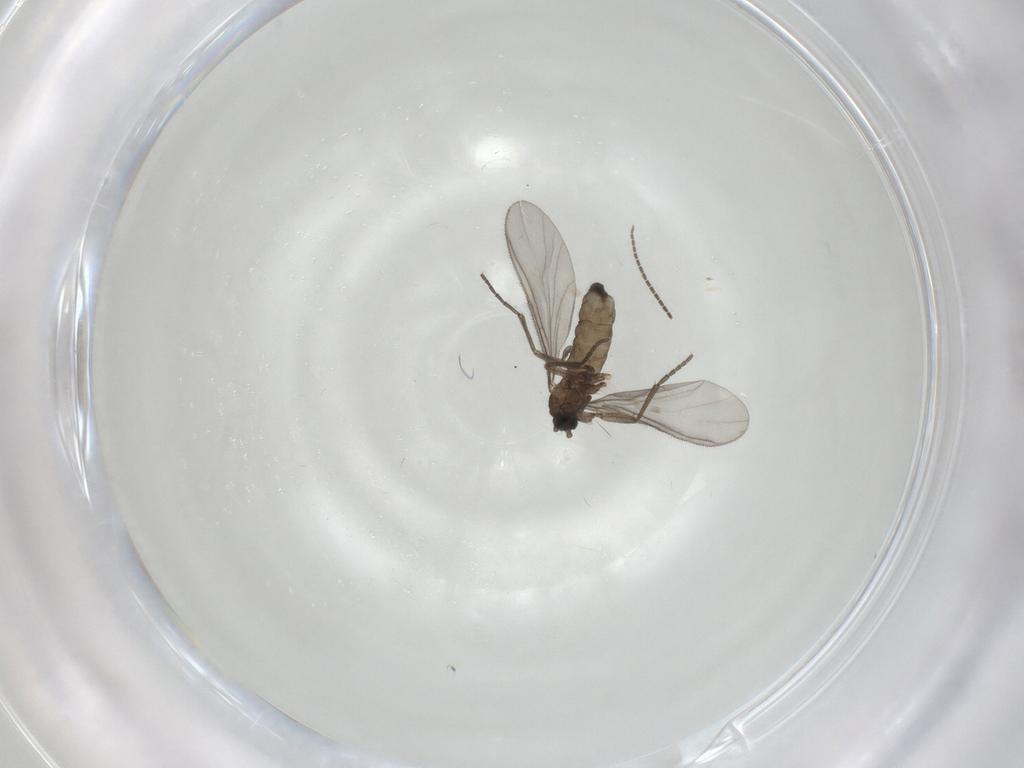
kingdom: Animalia
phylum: Arthropoda
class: Insecta
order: Diptera
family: Sciaridae
